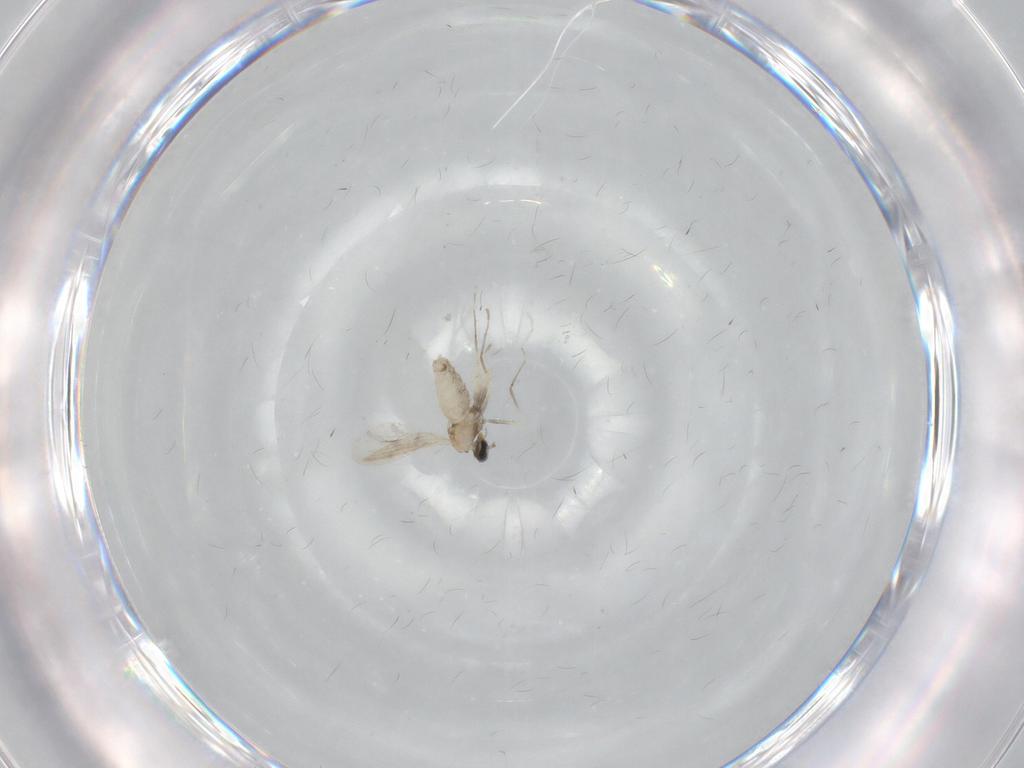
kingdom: Animalia
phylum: Arthropoda
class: Insecta
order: Diptera
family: Cecidomyiidae
